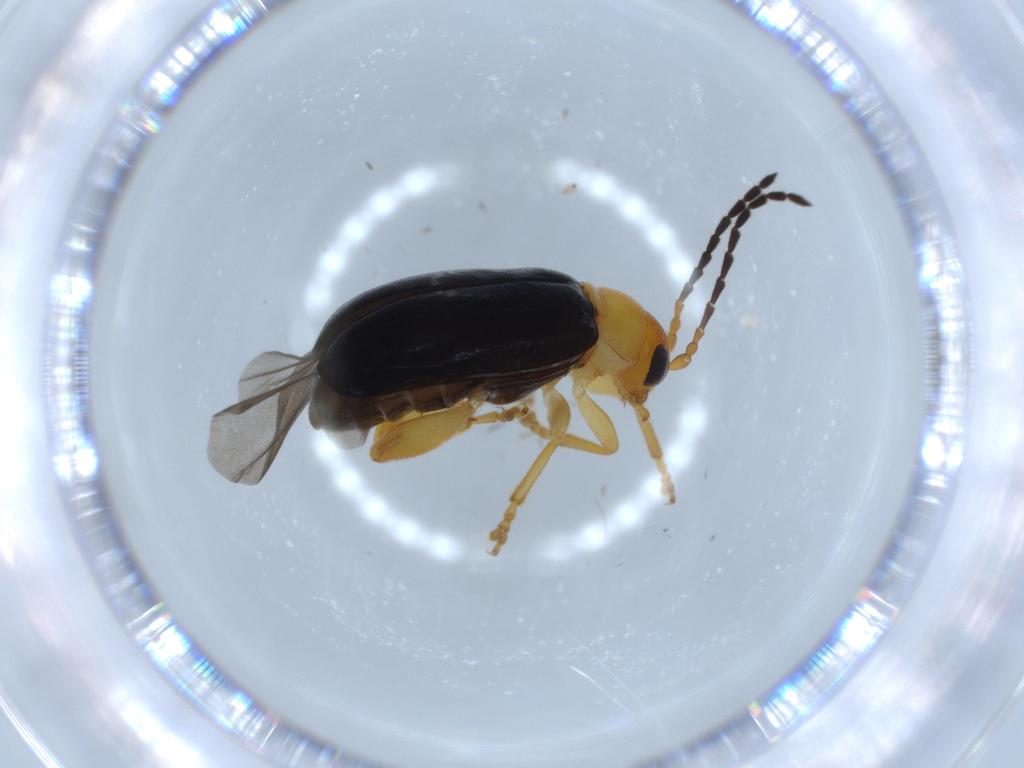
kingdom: Animalia
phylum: Arthropoda
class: Insecta
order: Coleoptera
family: Coccinellidae
